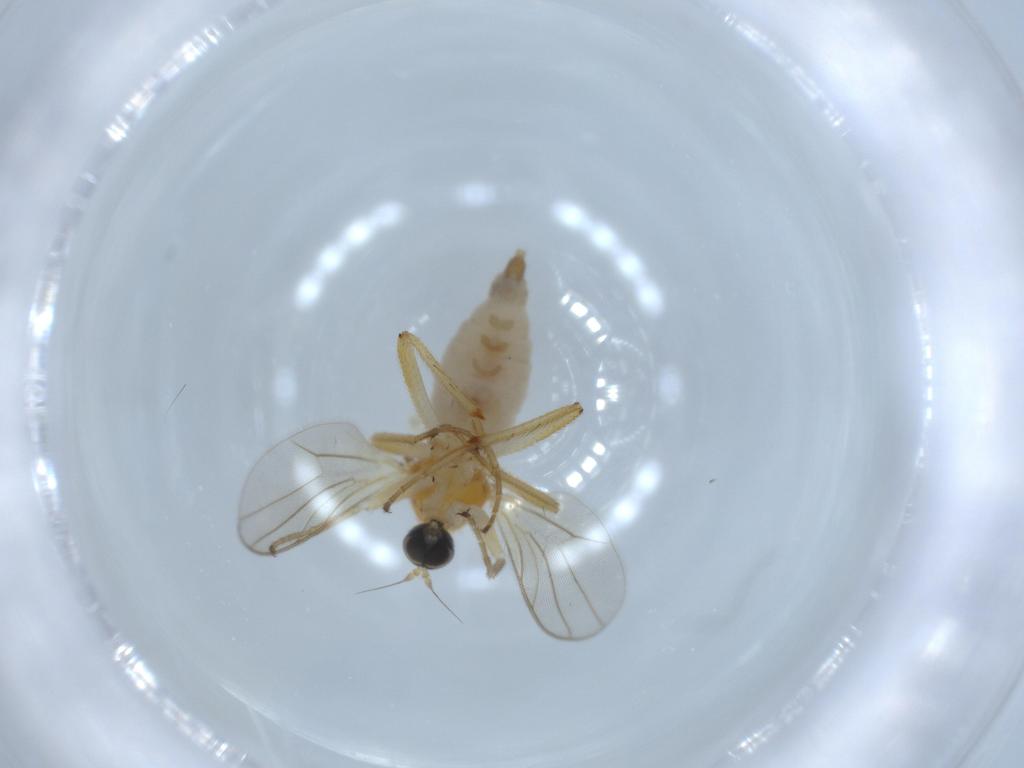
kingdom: Animalia
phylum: Arthropoda
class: Insecta
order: Diptera
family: Hybotidae
